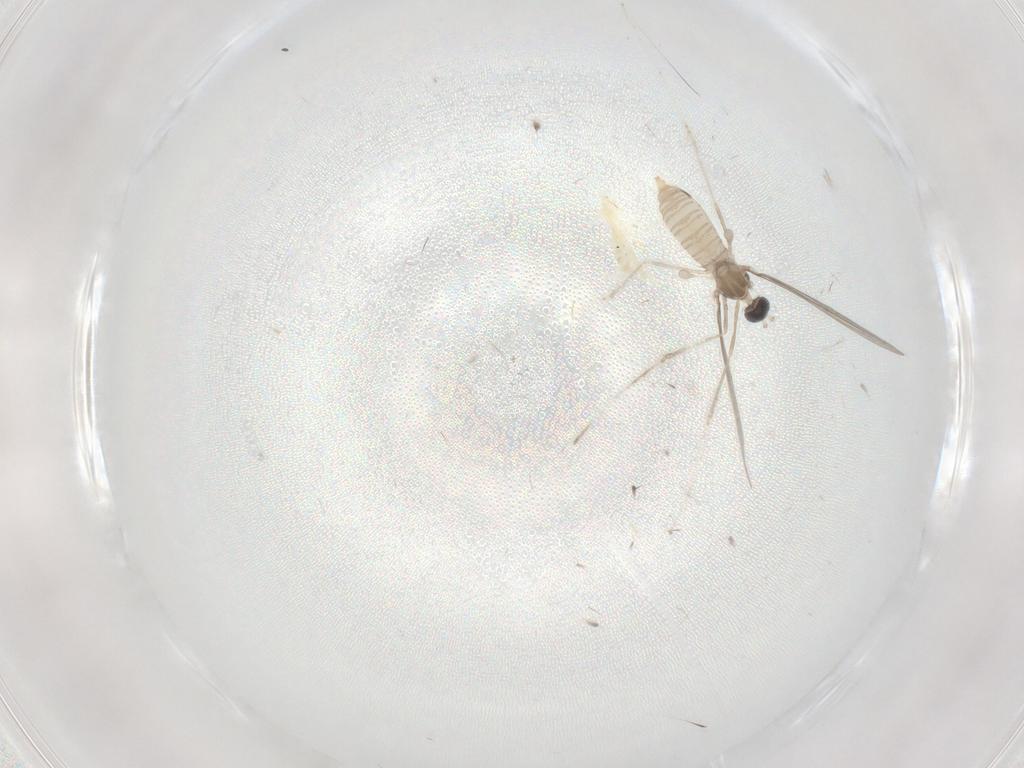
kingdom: Animalia
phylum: Arthropoda
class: Insecta
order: Diptera
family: Cecidomyiidae
